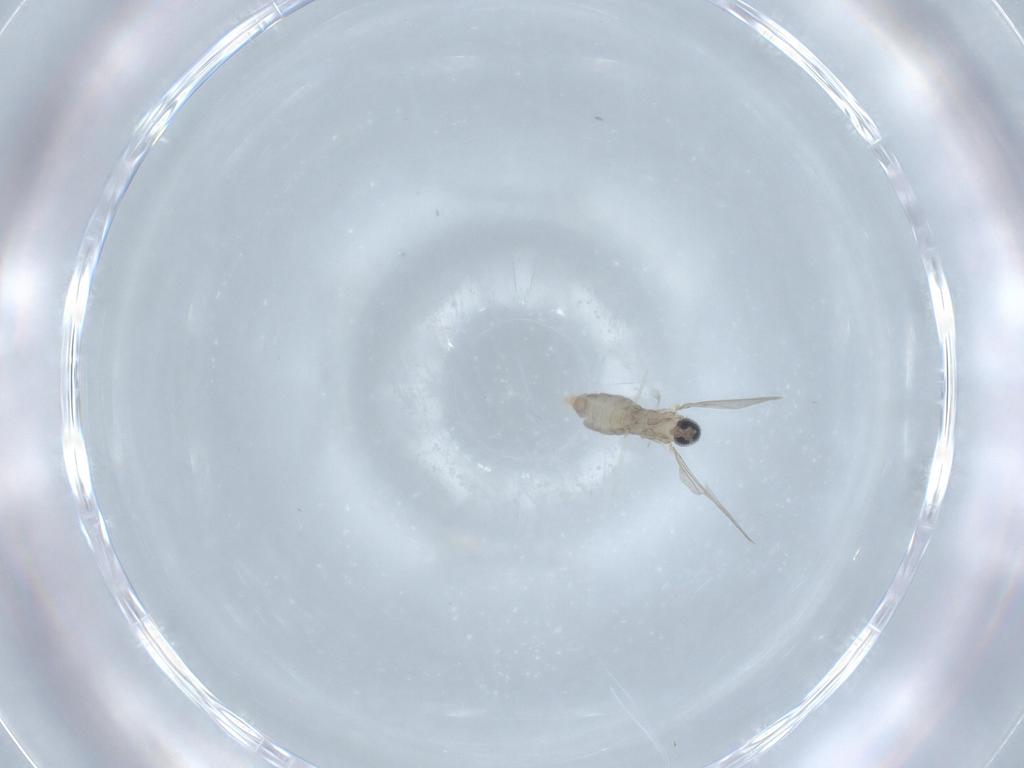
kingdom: Animalia
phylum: Arthropoda
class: Insecta
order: Diptera
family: Cecidomyiidae
